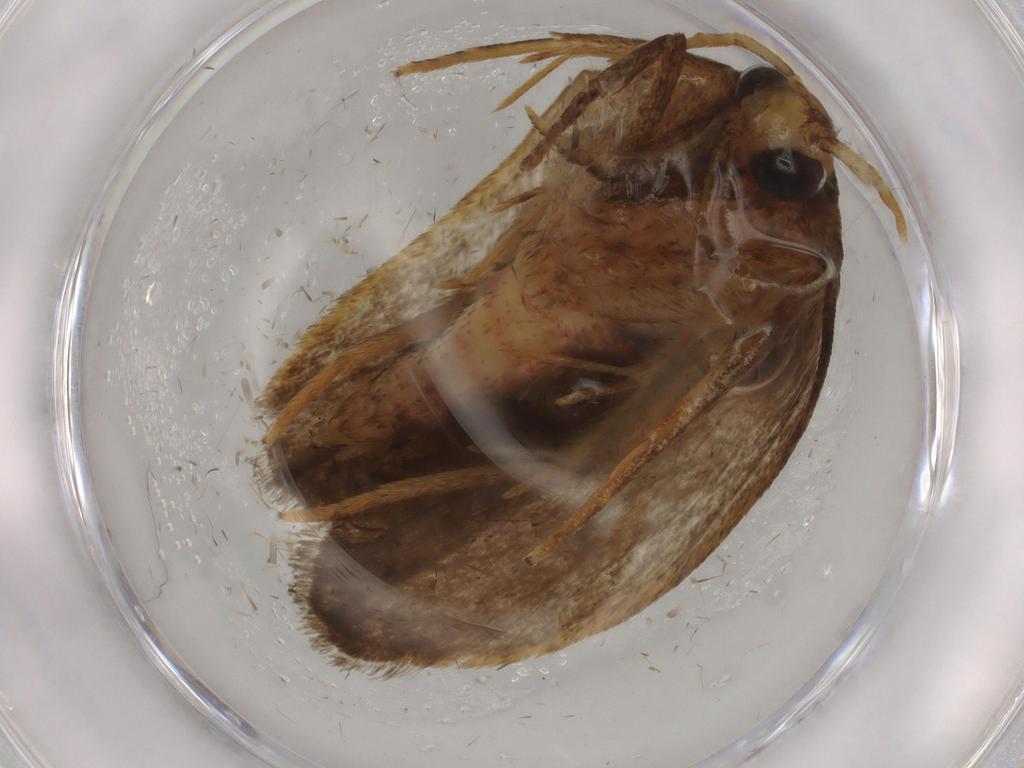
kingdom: Animalia
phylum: Arthropoda
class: Insecta
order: Lepidoptera
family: Autostichidae
